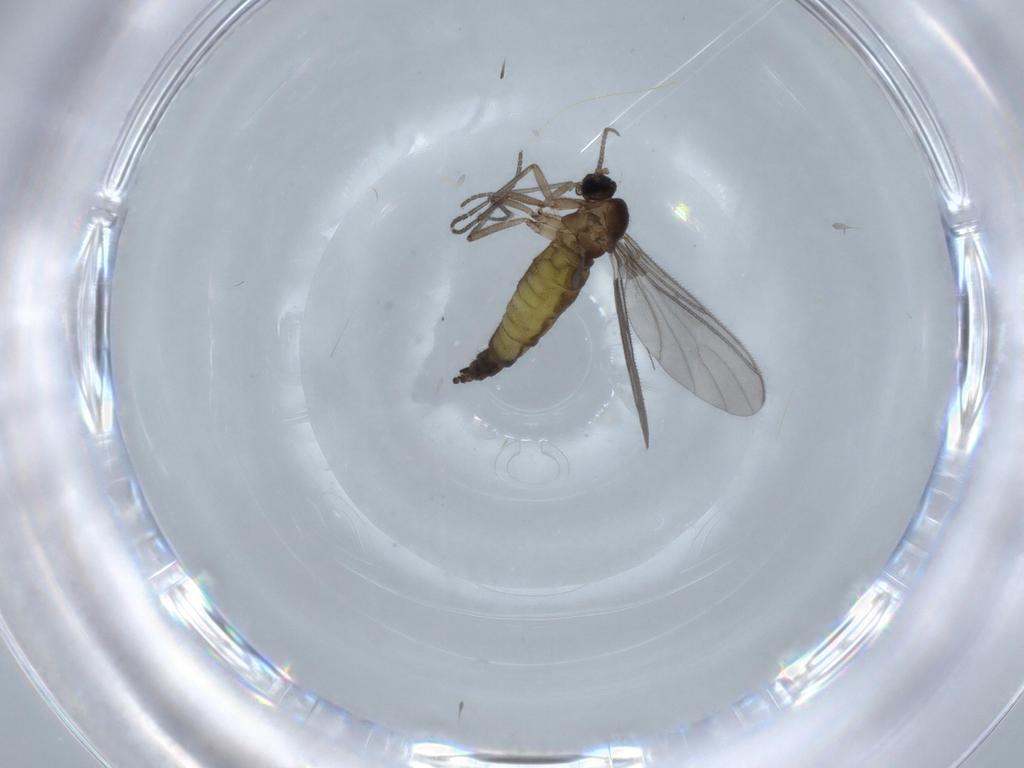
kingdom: Animalia
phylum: Arthropoda
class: Insecta
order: Diptera
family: Sciaridae
